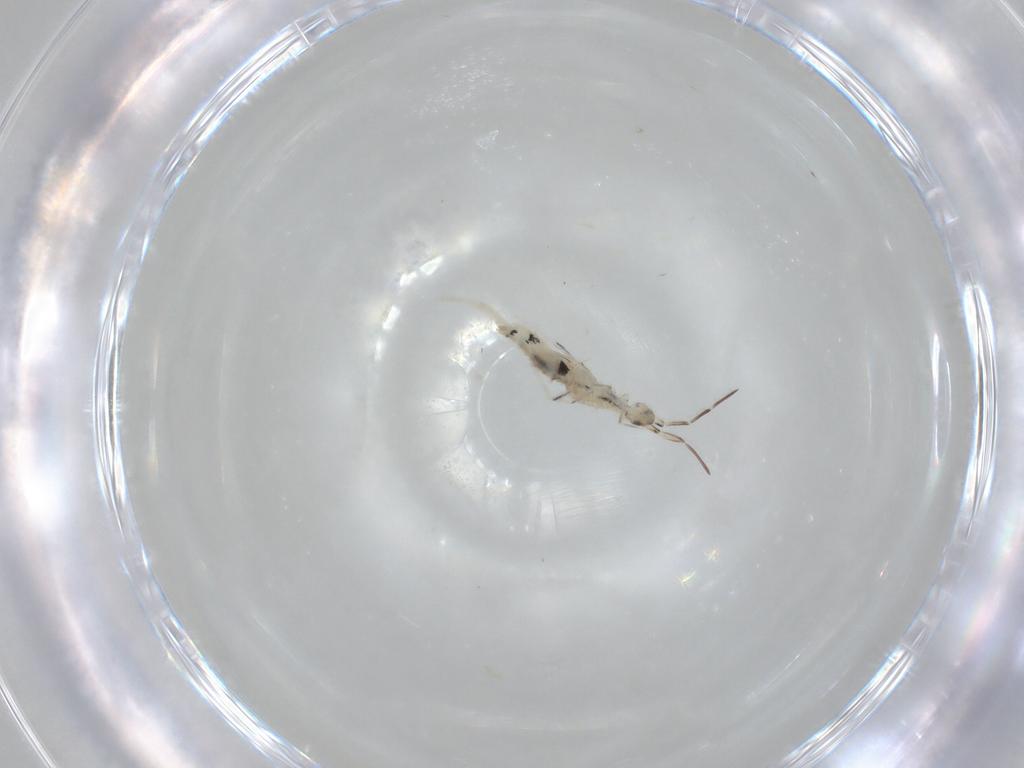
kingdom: Animalia
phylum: Arthropoda
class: Collembola
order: Entomobryomorpha
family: Entomobryidae
